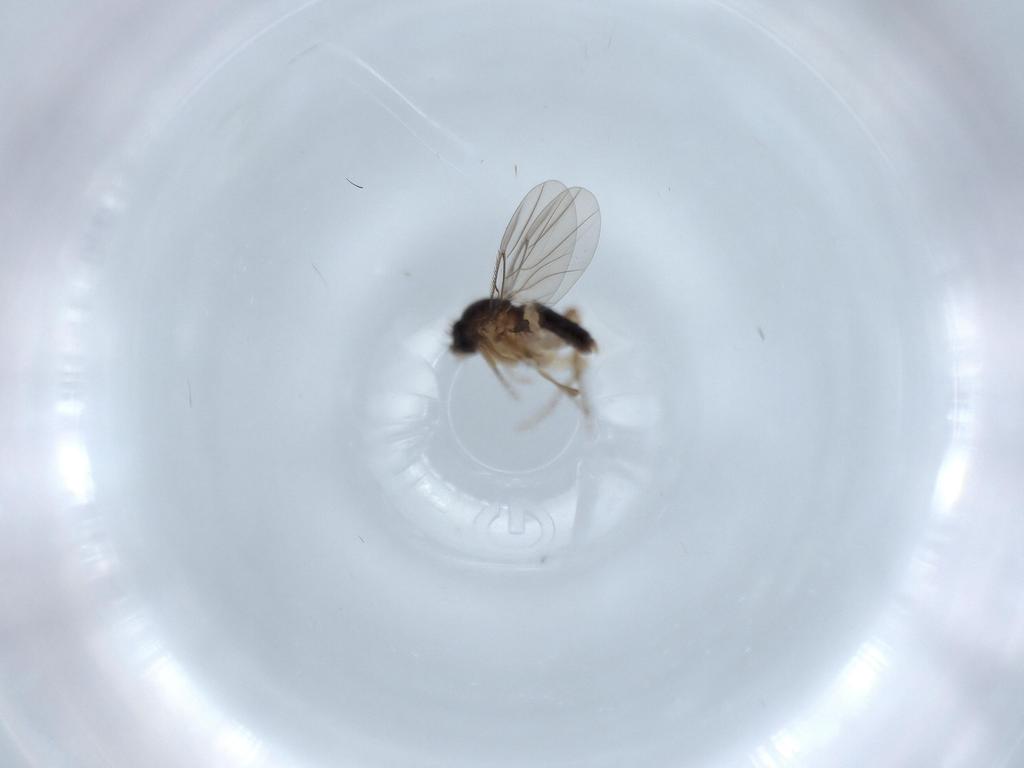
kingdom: Animalia
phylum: Arthropoda
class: Insecta
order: Diptera
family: Phoridae
